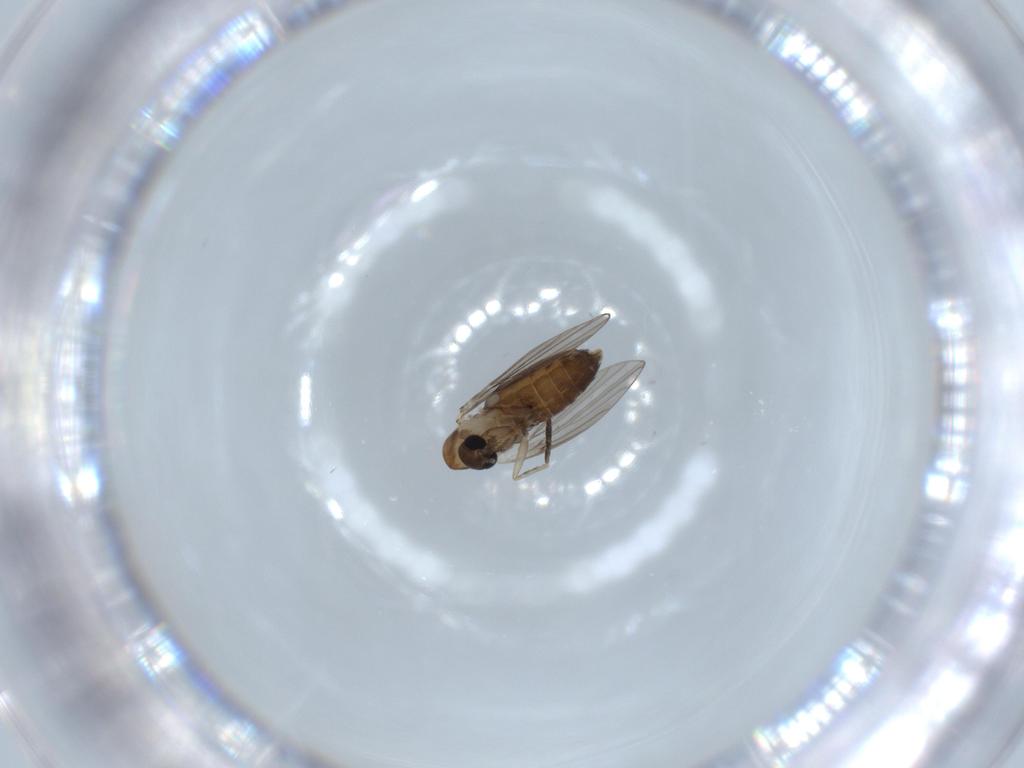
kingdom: Animalia
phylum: Arthropoda
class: Insecta
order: Diptera
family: Psychodidae
